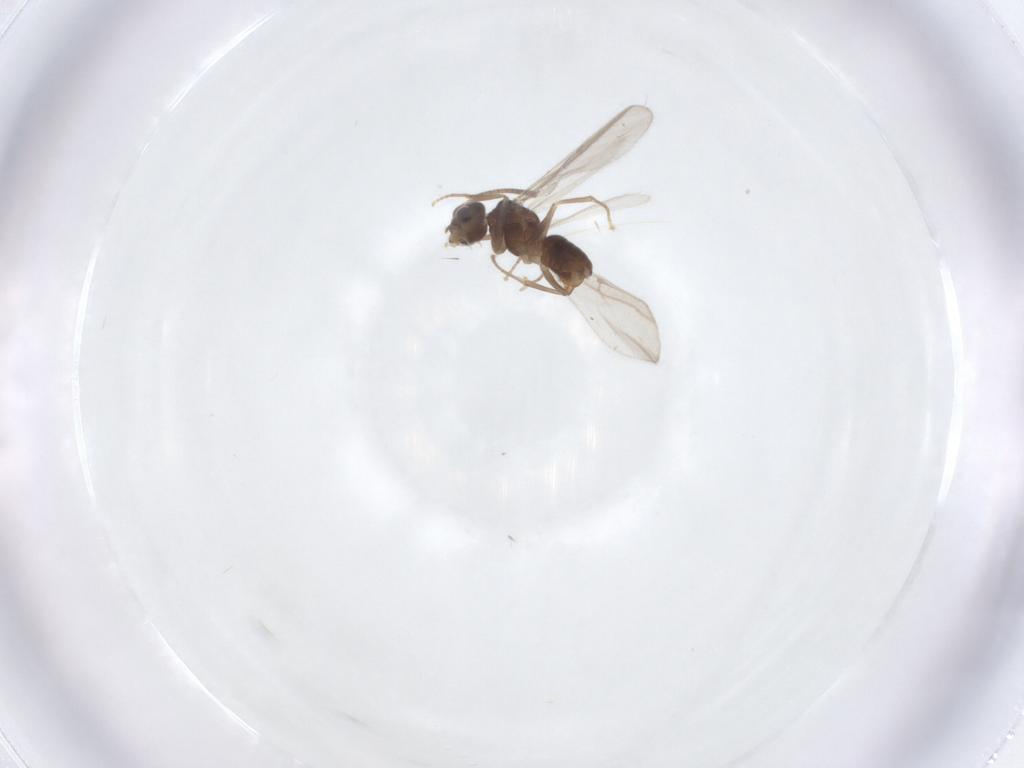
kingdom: Animalia
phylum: Arthropoda
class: Insecta
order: Hymenoptera
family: Formicidae
